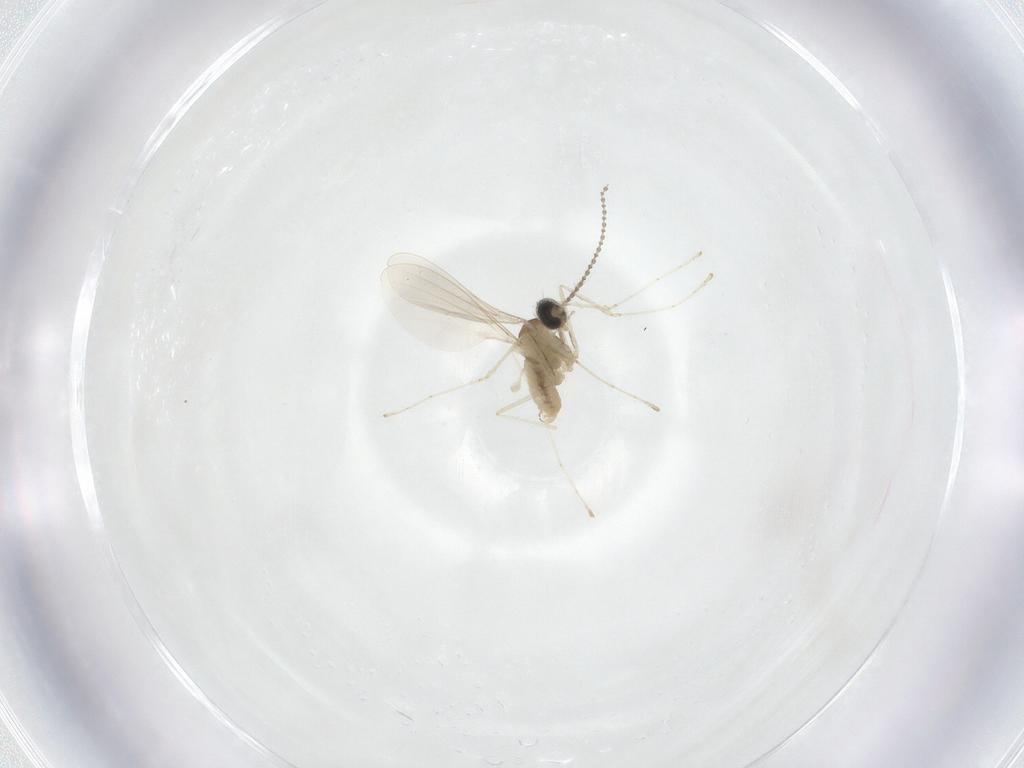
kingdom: Animalia
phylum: Arthropoda
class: Insecta
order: Diptera
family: Cecidomyiidae
